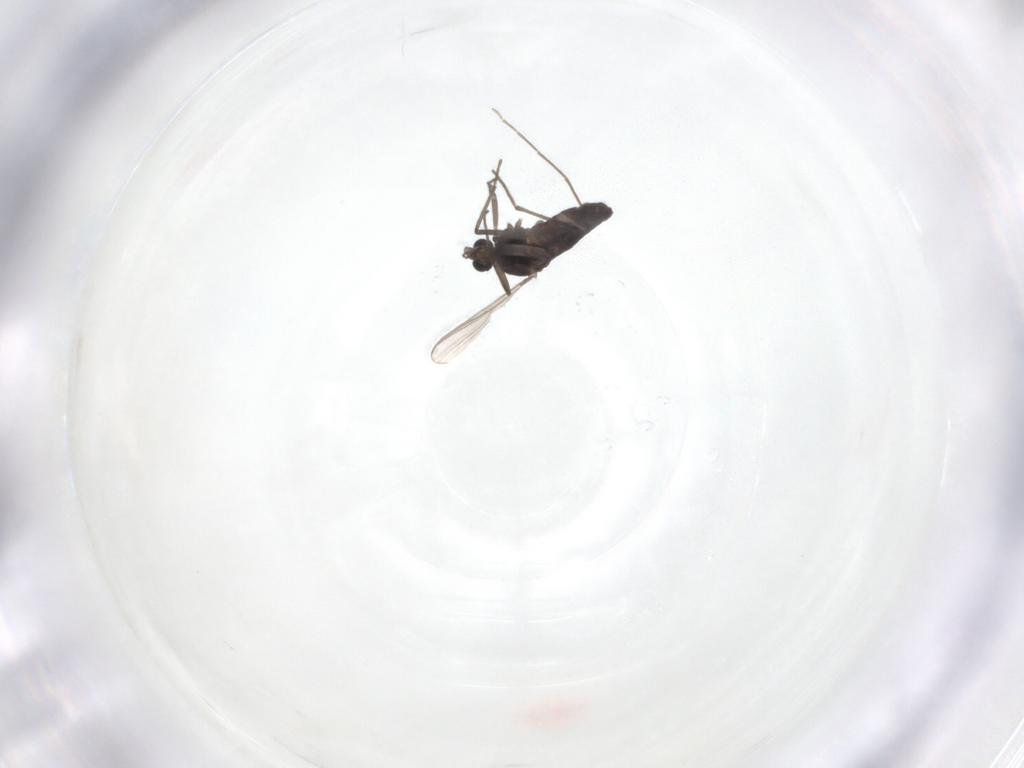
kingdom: Animalia
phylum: Arthropoda
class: Insecta
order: Diptera
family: Chironomidae
